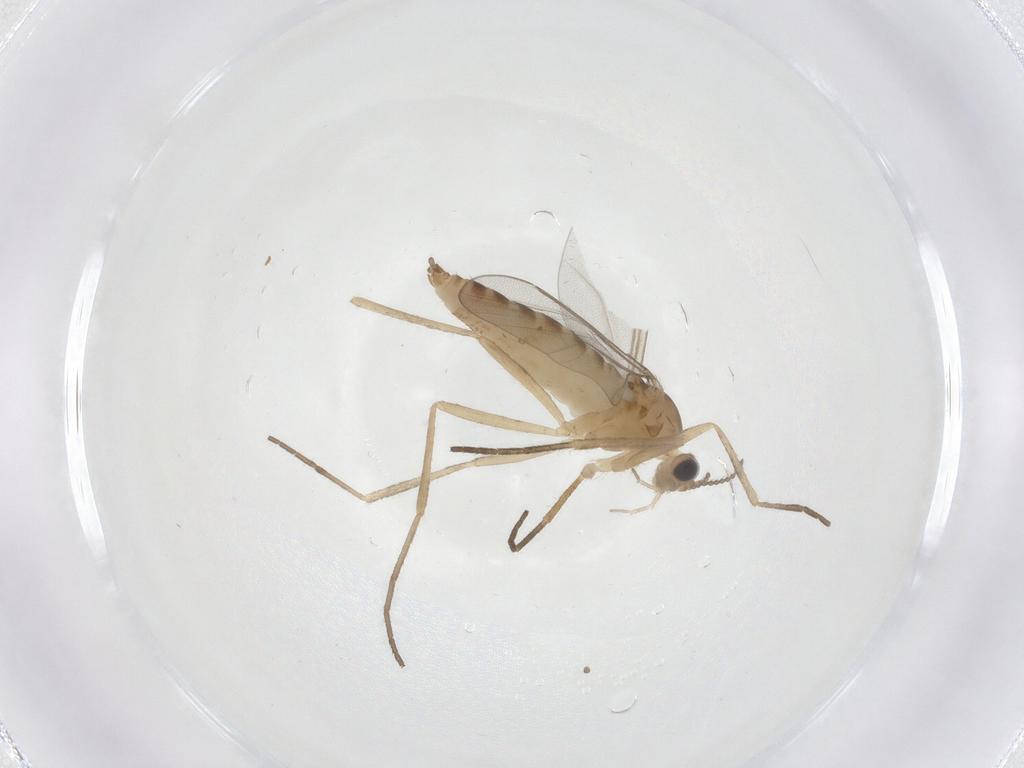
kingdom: Animalia
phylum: Arthropoda
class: Insecta
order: Diptera
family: Cecidomyiidae
